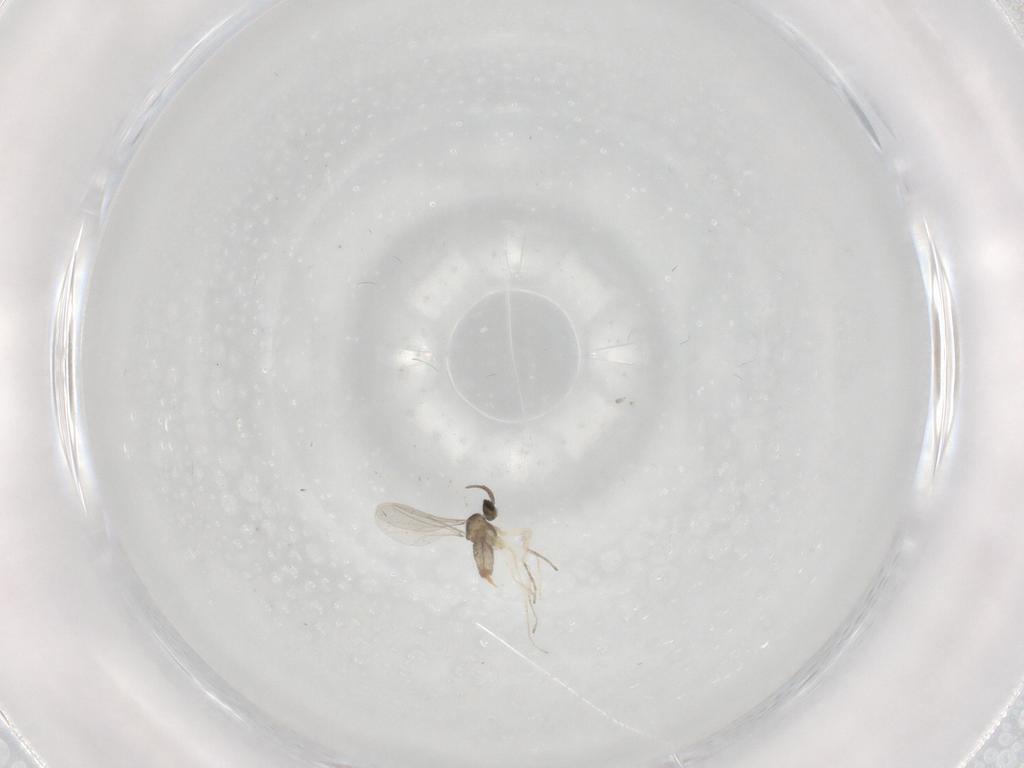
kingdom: Animalia
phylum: Arthropoda
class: Insecta
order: Diptera
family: Cecidomyiidae
